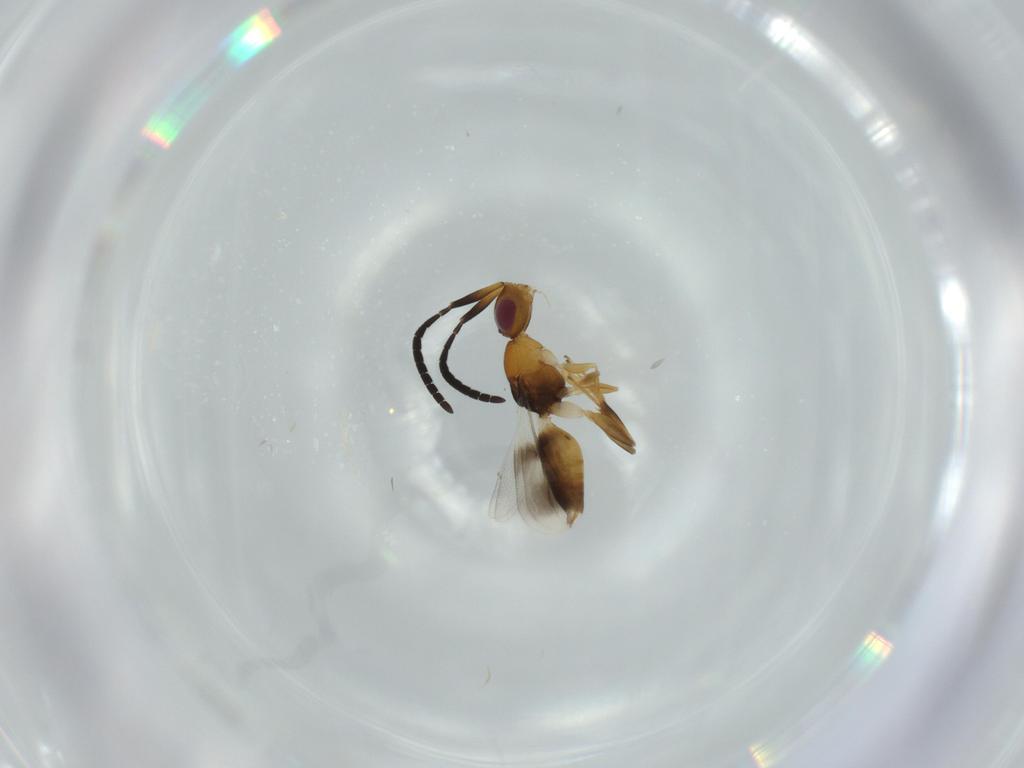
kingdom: Animalia
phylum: Arthropoda
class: Insecta
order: Hymenoptera
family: Megaspilidae
